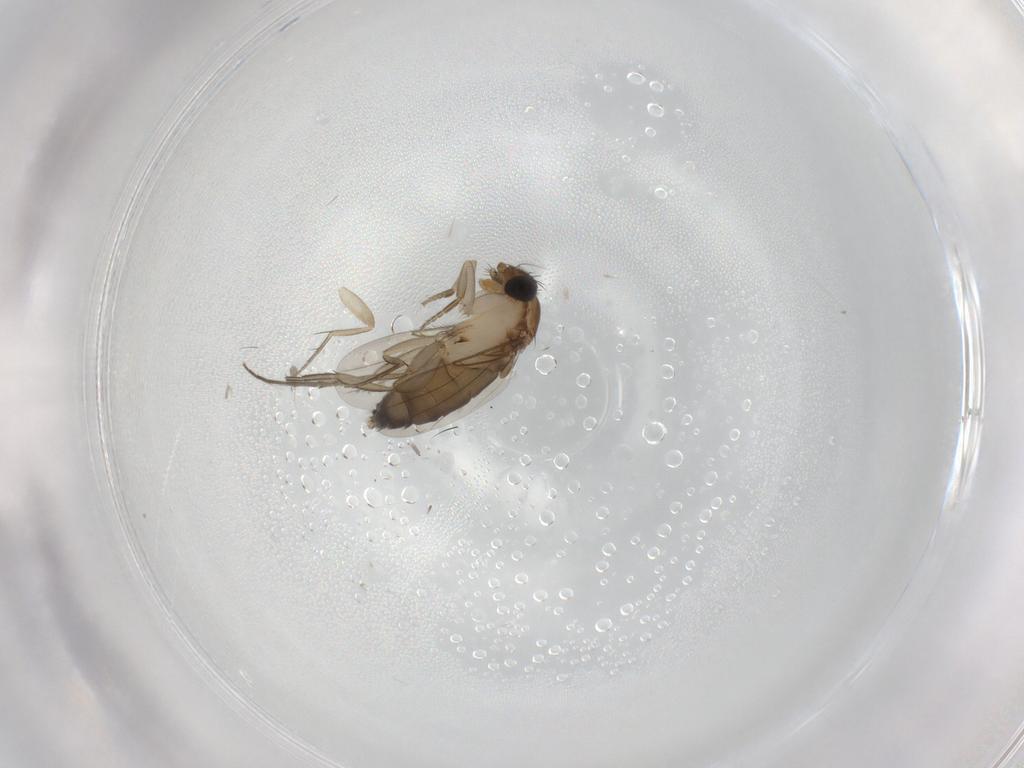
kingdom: Animalia
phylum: Arthropoda
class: Insecta
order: Diptera
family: Phoridae
